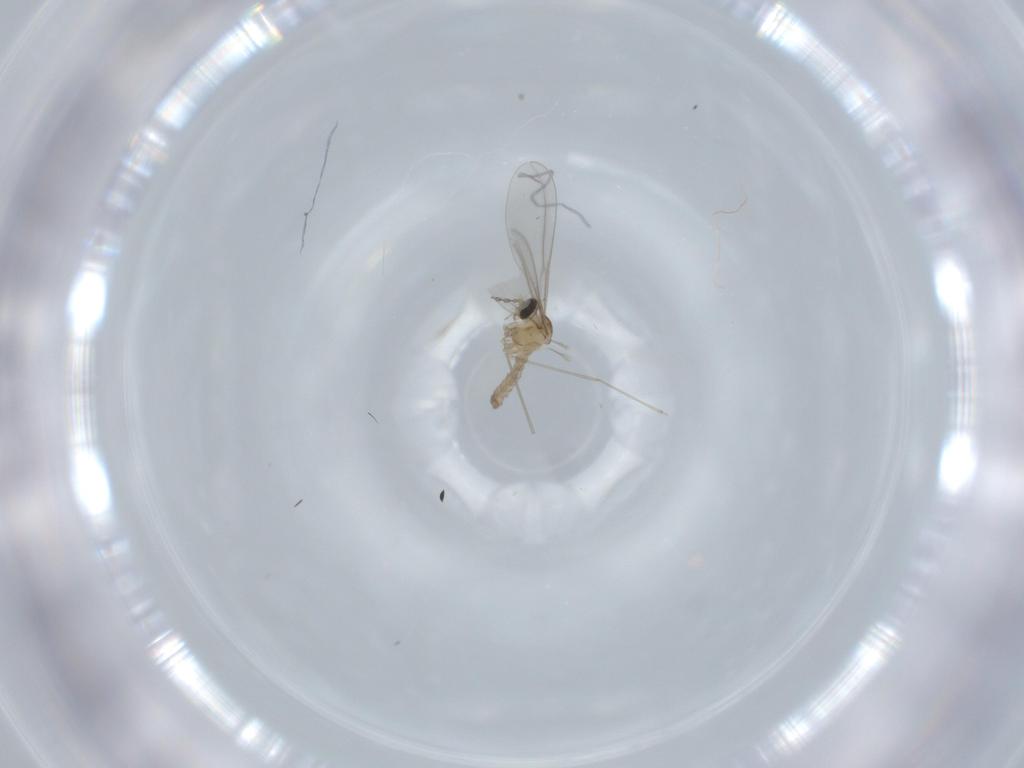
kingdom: Animalia
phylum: Arthropoda
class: Insecta
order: Diptera
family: Cecidomyiidae
